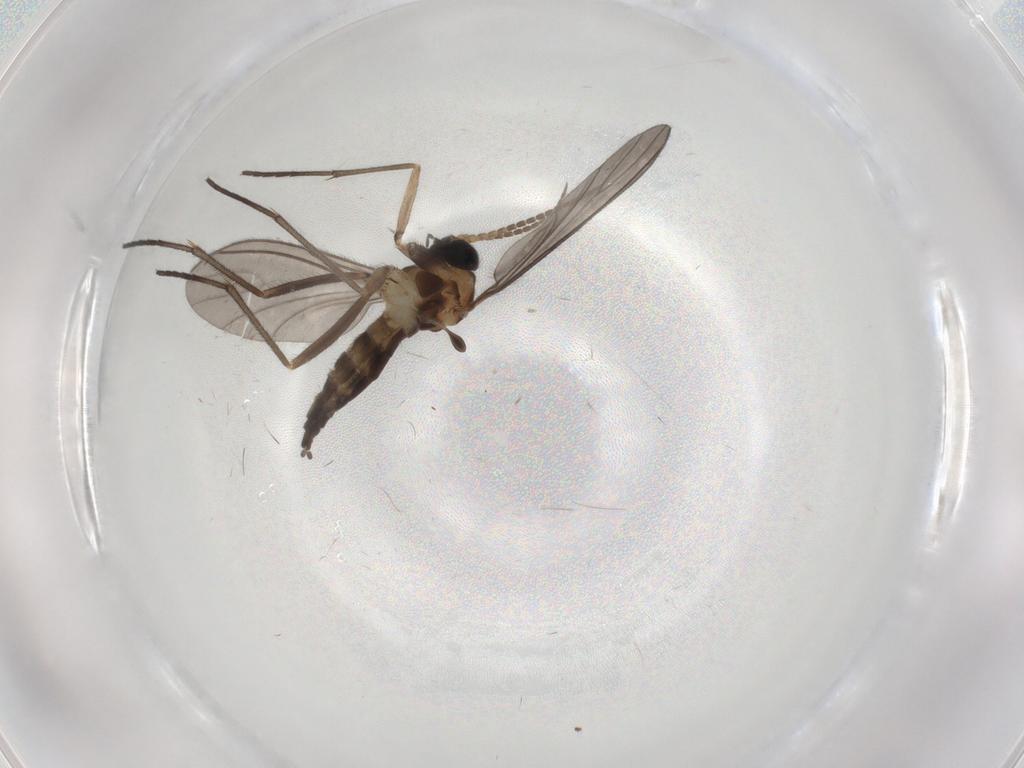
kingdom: Animalia
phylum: Arthropoda
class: Insecta
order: Diptera
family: Sciaridae
